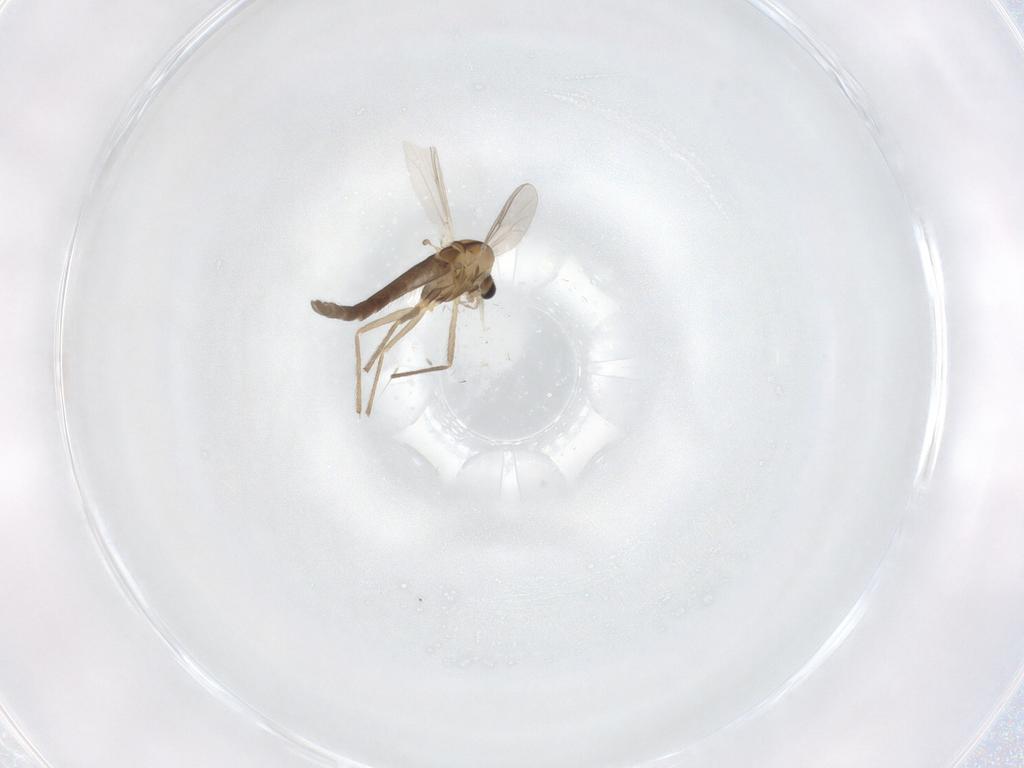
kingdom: Animalia
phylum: Arthropoda
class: Insecta
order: Diptera
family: Chironomidae
